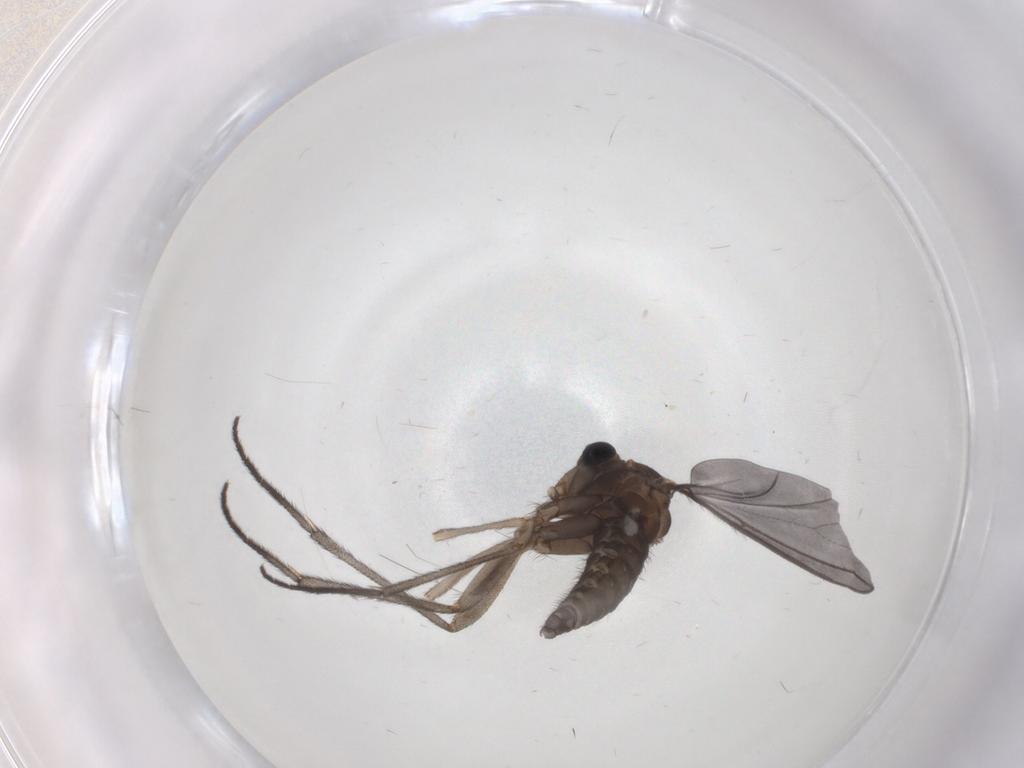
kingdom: Animalia
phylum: Arthropoda
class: Insecta
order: Diptera
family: Sciaridae
